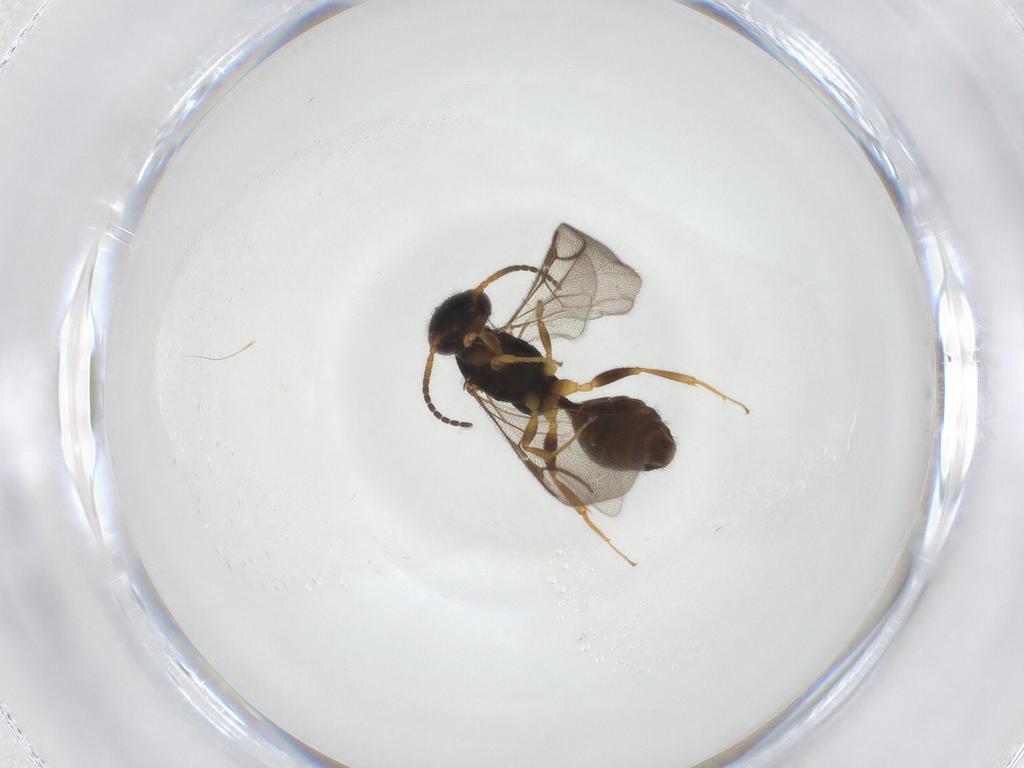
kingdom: Animalia
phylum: Arthropoda
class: Insecta
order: Hymenoptera
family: Bethylidae
